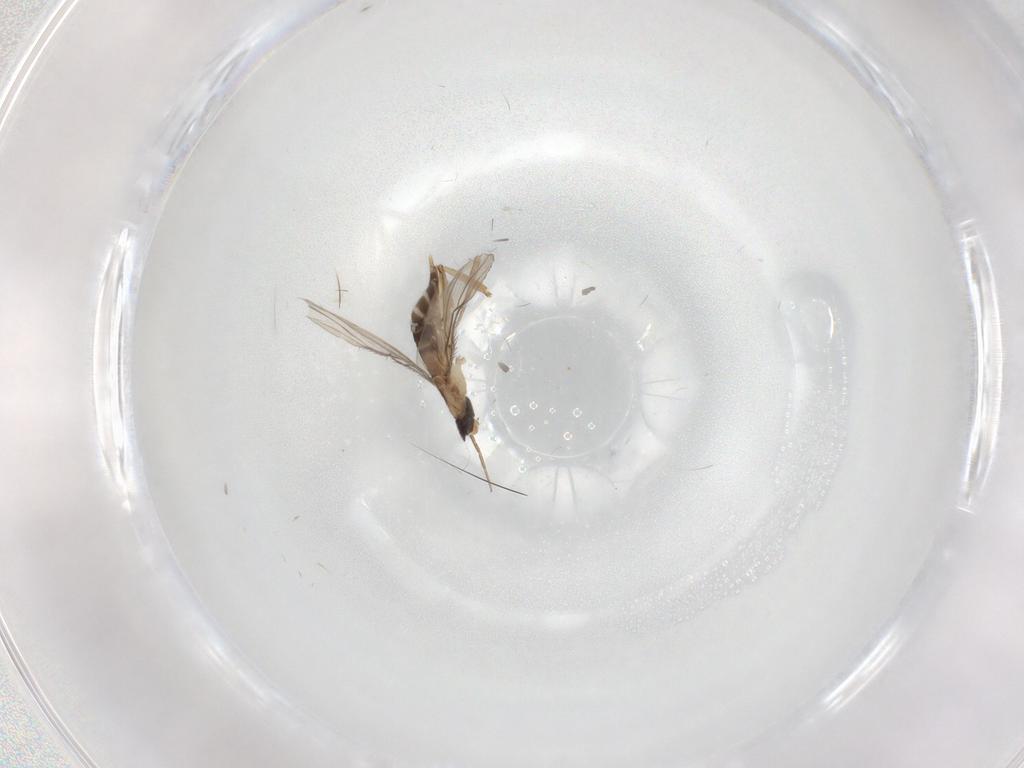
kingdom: Animalia
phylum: Arthropoda
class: Insecta
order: Diptera
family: Phoridae
